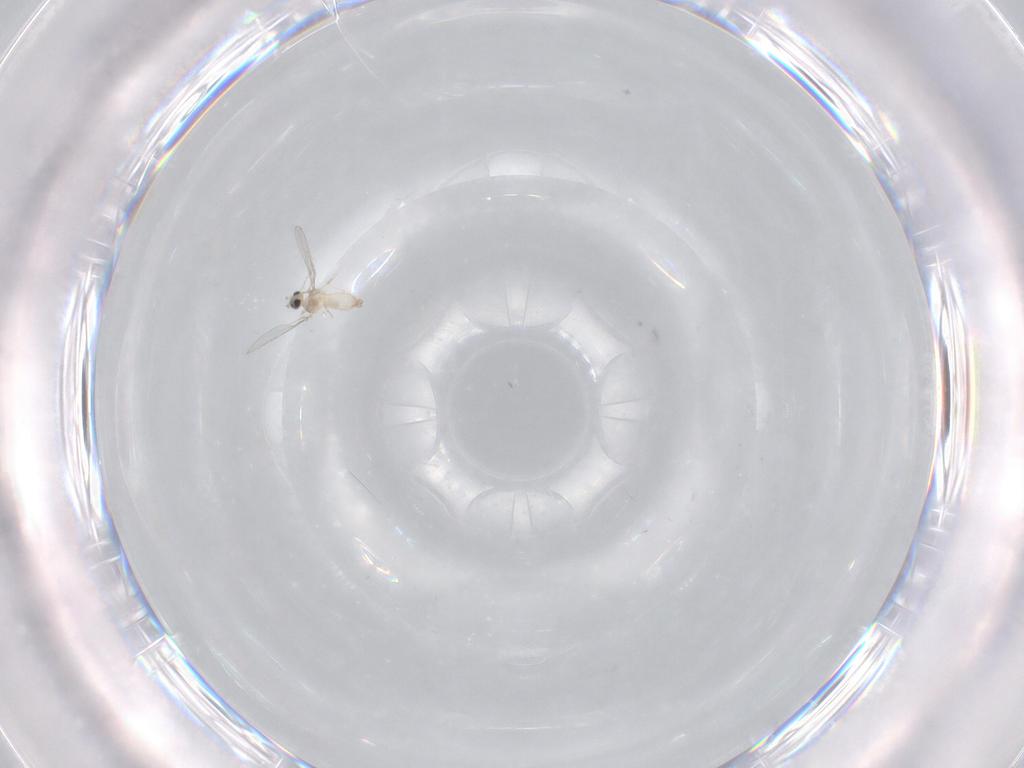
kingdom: Animalia
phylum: Arthropoda
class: Insecta
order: Diptera
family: Cecidomyiidae
